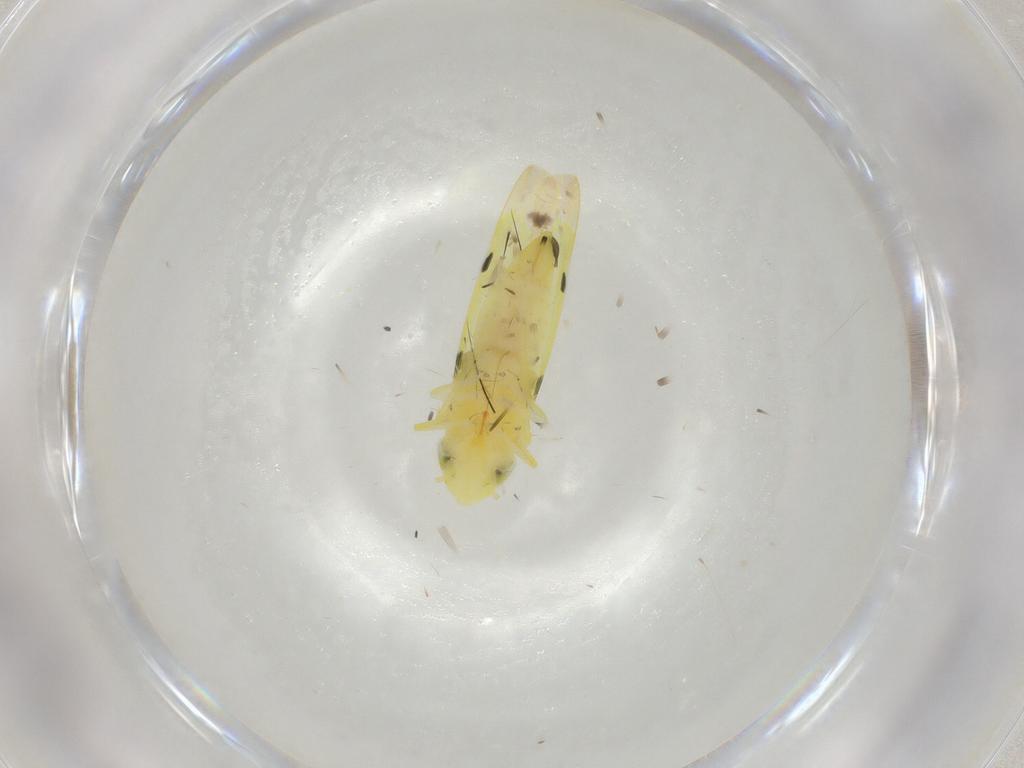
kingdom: Animalia
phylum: Arthropoda
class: Insecta
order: Hemiptera
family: Cicadellidae
